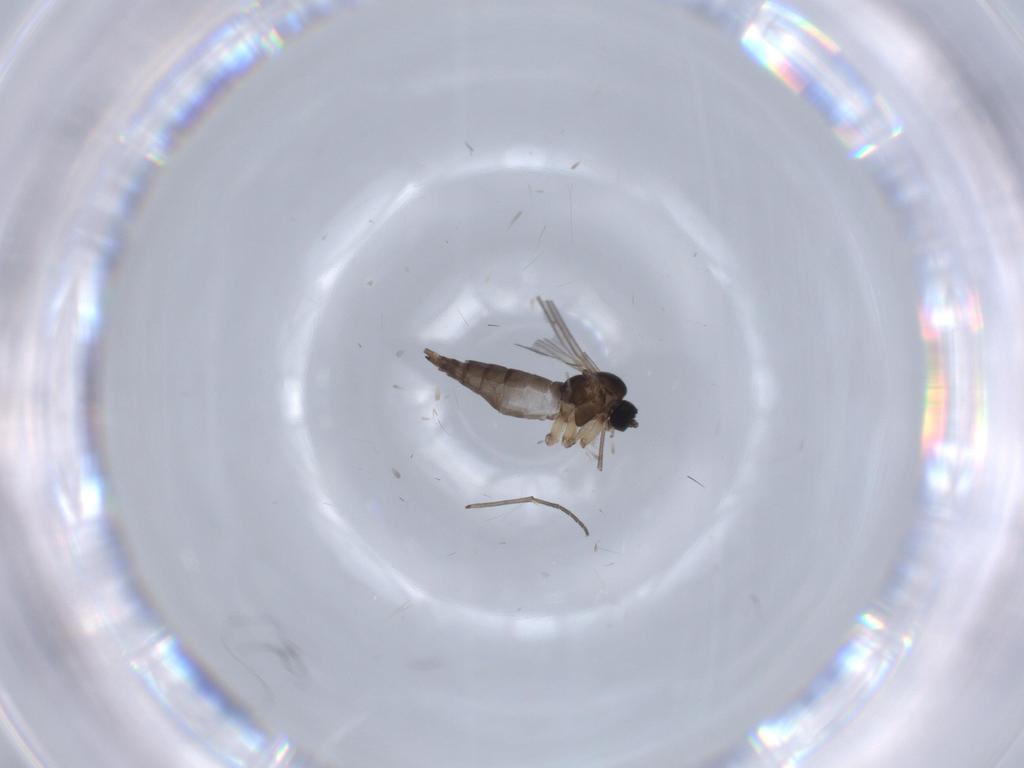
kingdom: Animalia
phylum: Arthropoda
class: Insecta
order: Diptera
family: Sciaridae
